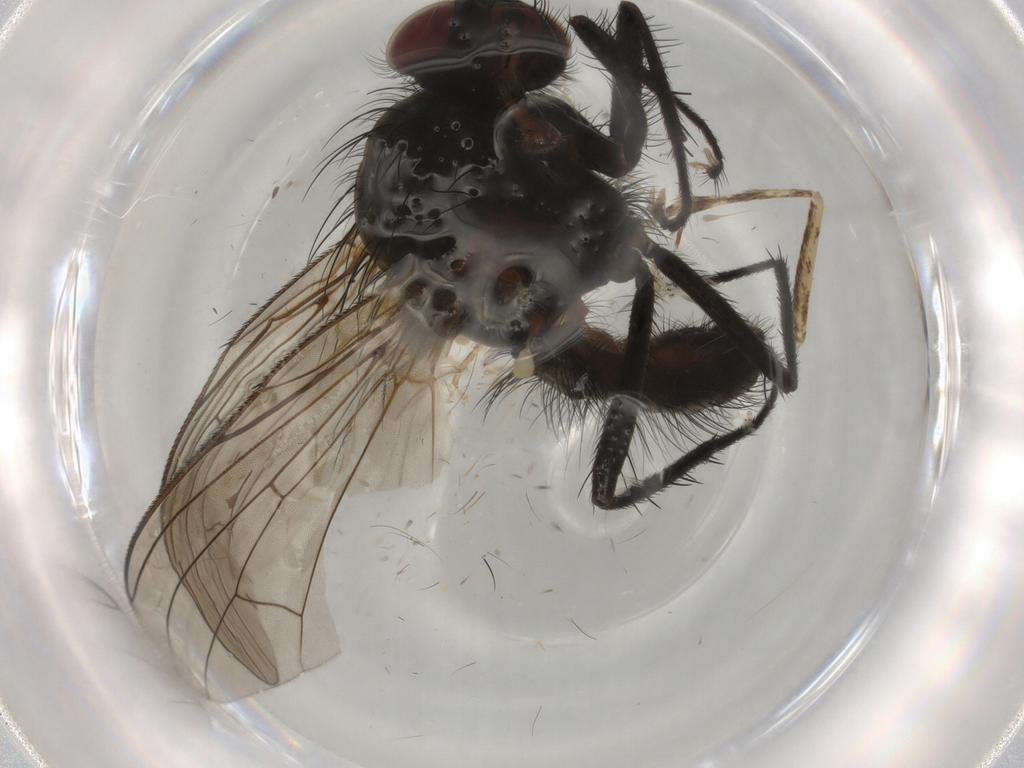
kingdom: Animalia
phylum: Arthropoda
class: Insecta
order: Diptera
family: Anthomyiidae
